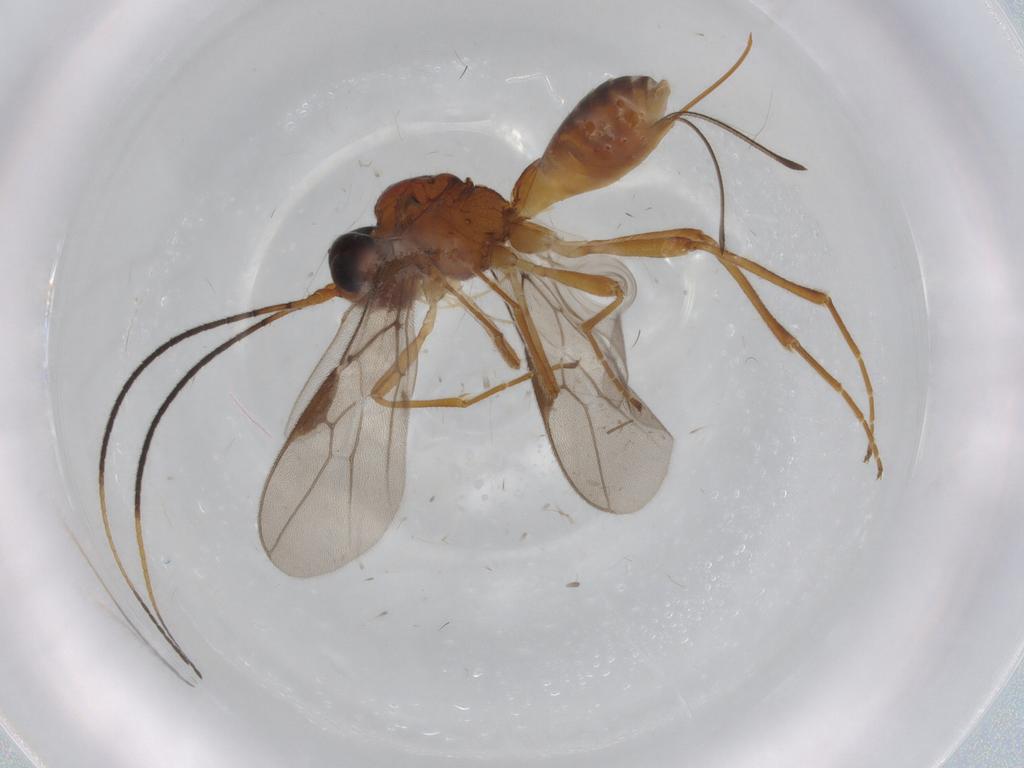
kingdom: Animalia
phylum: Arthropoda
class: Insecta
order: Hymenoptera
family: Braconidae
